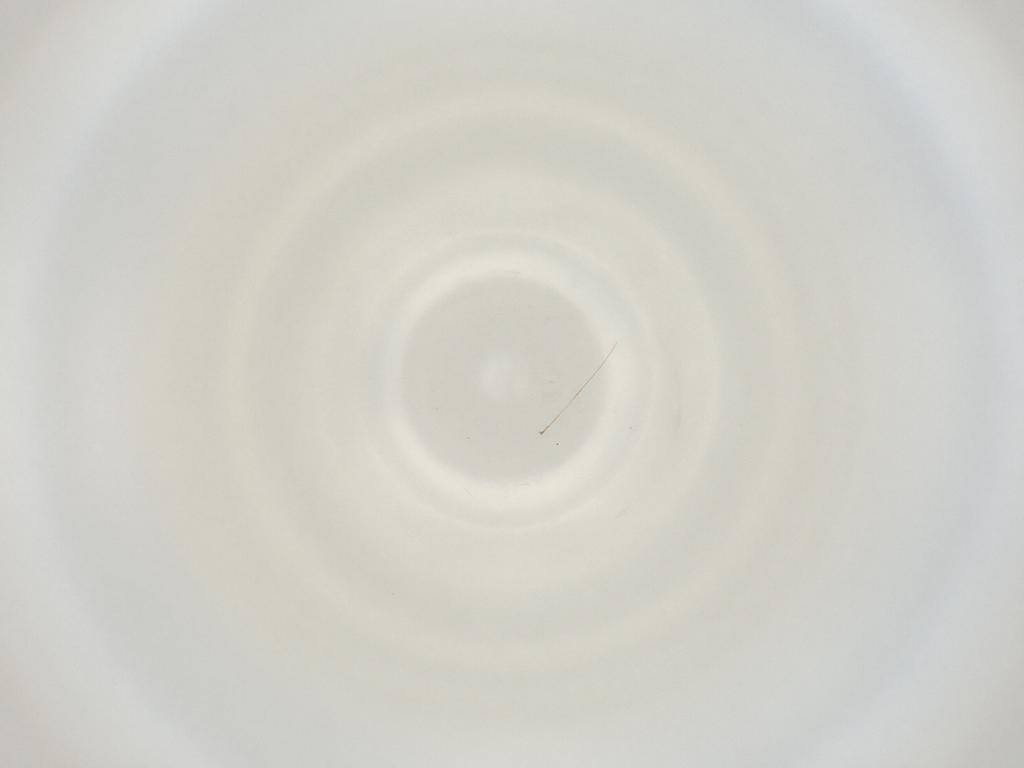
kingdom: Animalia
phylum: Arthropoda
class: Insecta
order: Diptera
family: Cecidomyiidae
